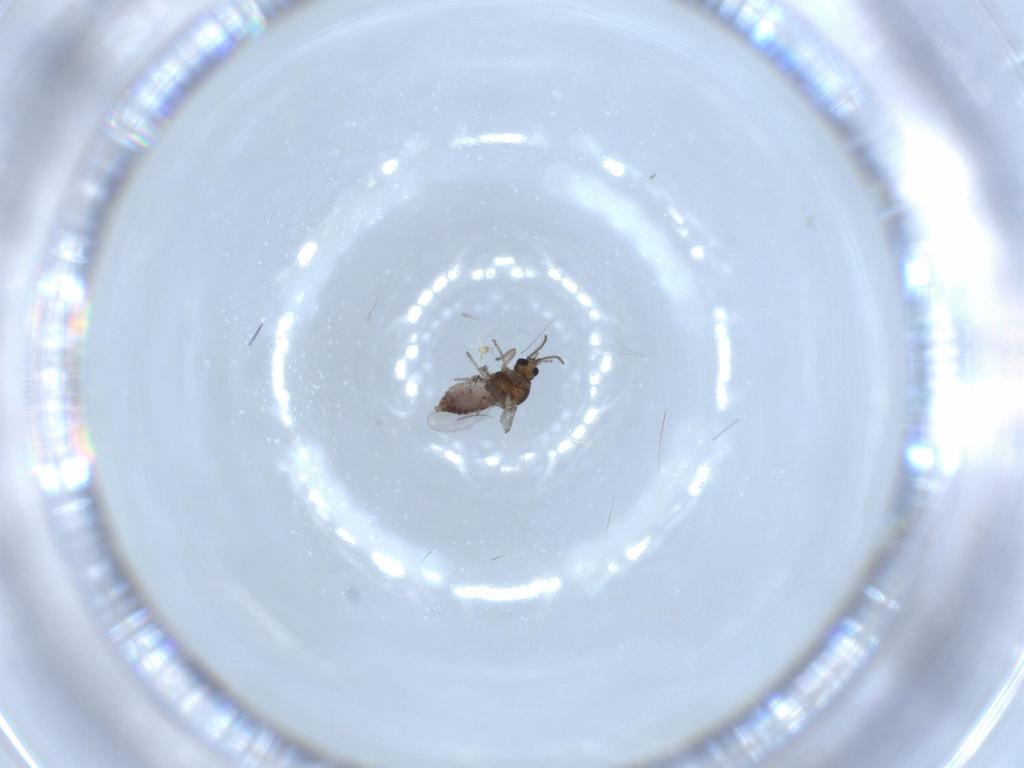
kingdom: Animalia
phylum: Arthropoda
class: Insecta
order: Diptera
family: Ceratopogonidae
